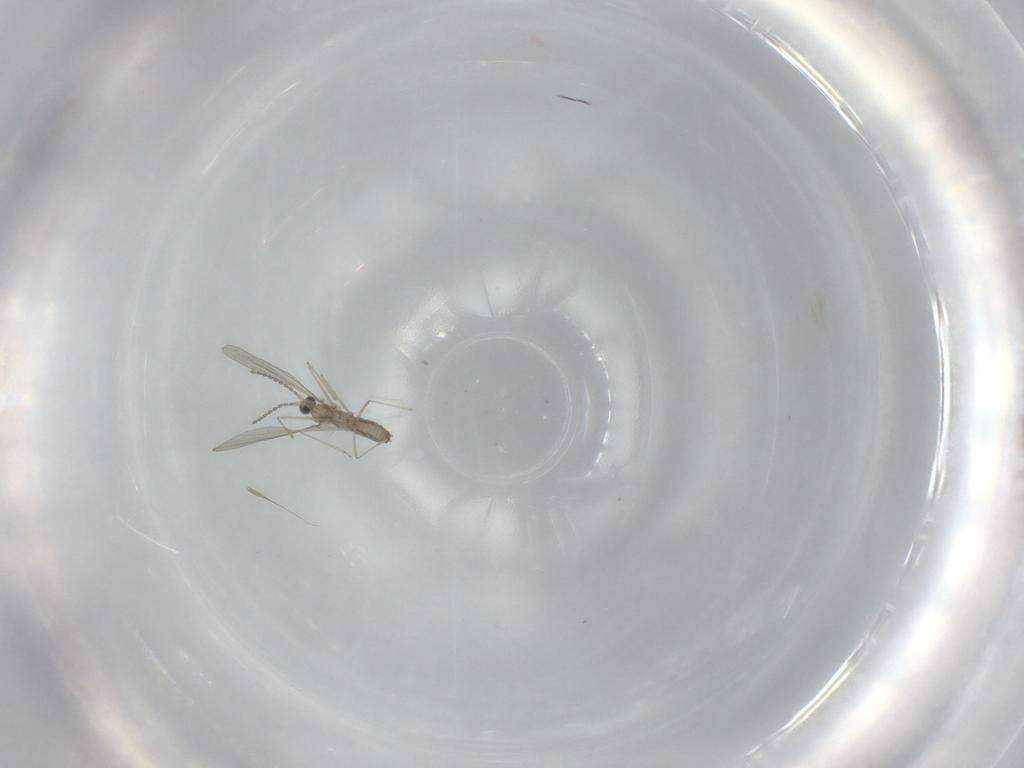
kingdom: Animalia
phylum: Arthropoda
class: Insecta
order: Diptera
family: Cecidomyiidae
